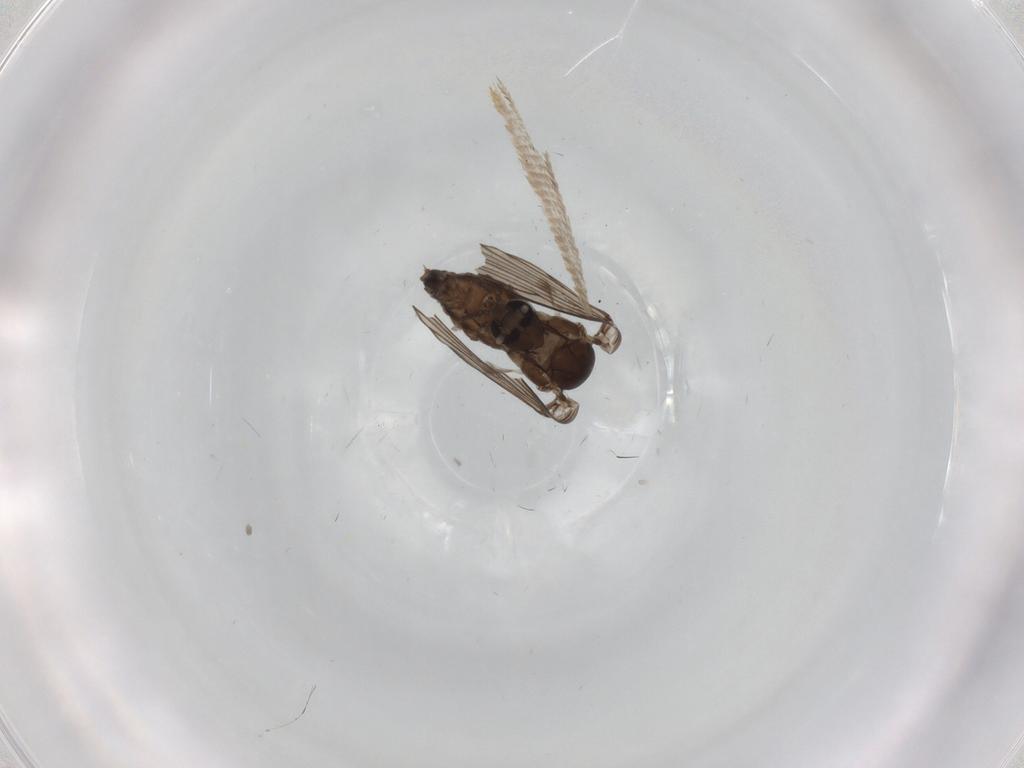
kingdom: Animalia
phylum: Arthropoda
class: Insecta
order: Diptera
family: Psychodidae
